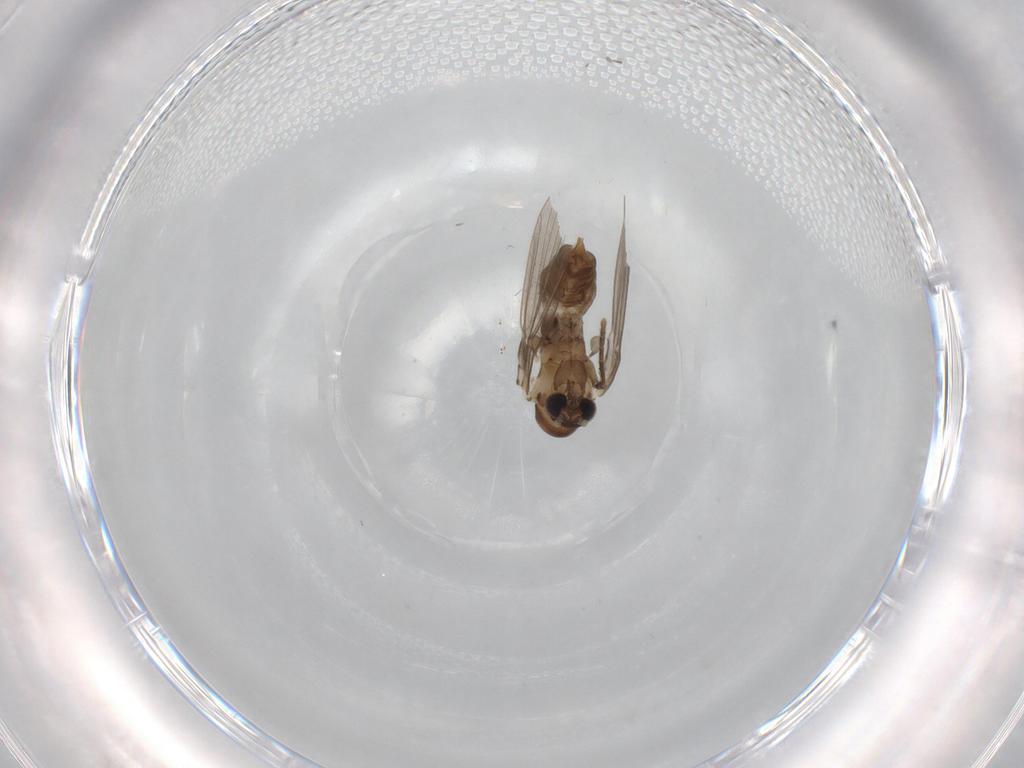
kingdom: Animalia
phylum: Arthropoda
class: Insecta
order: Diptera
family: Psychodidae
